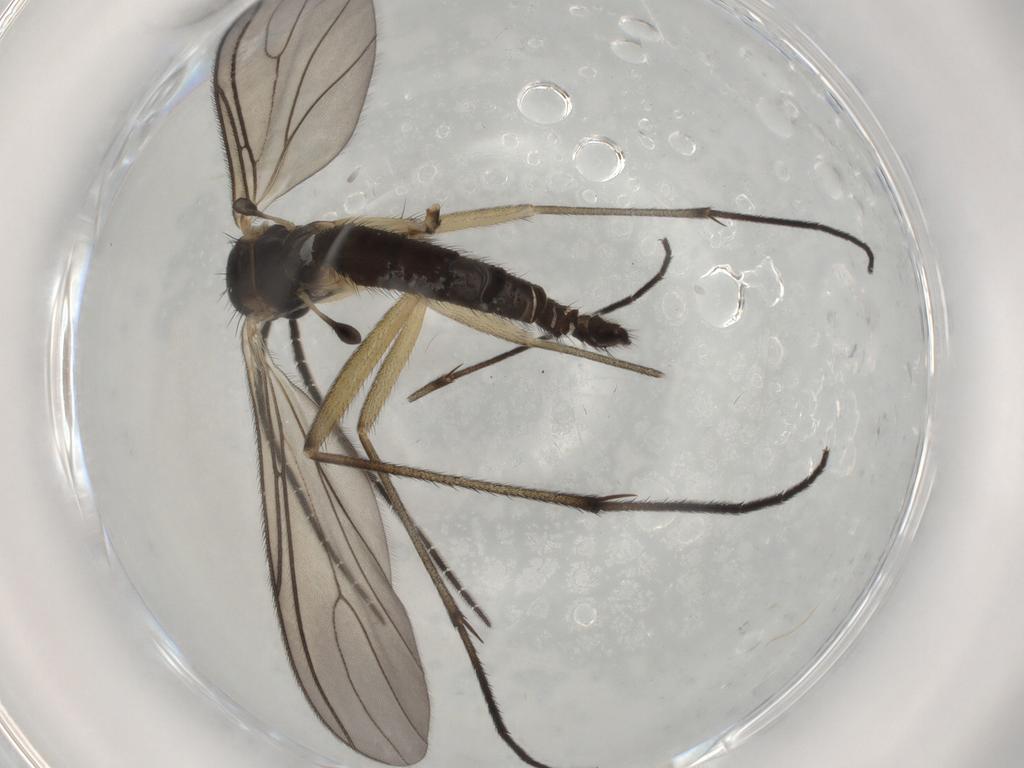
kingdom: Animalia
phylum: Arthropoda
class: Insecta
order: Diptera
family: Sciaridae
